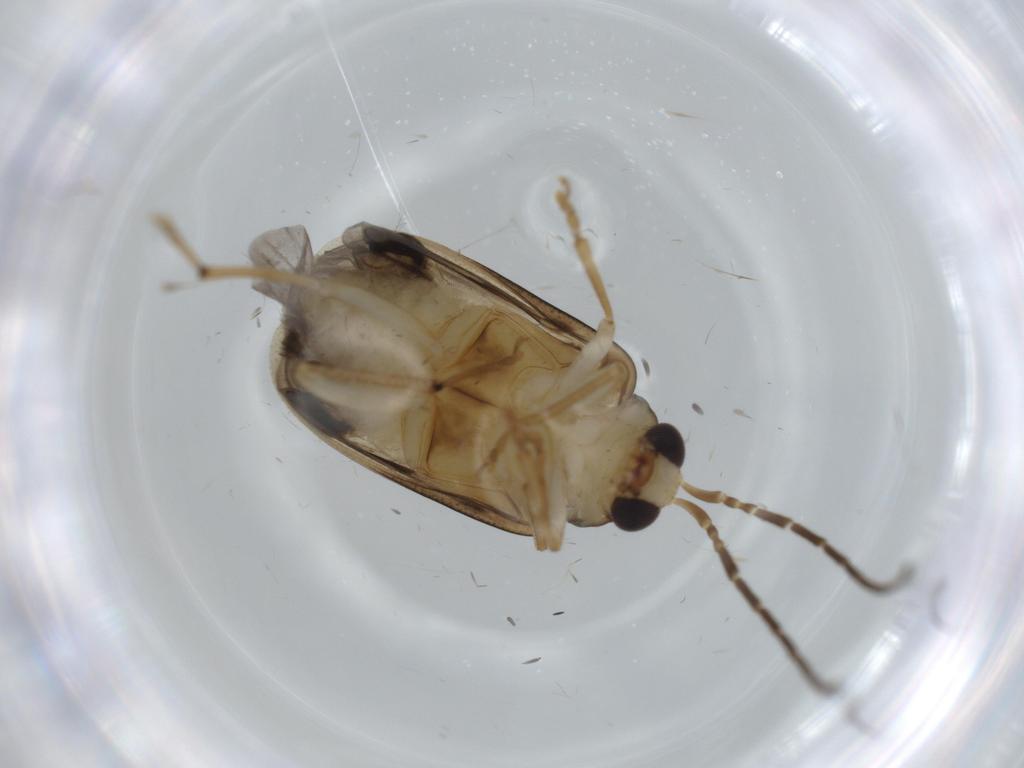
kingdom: Animalia
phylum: Arthropoda
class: Insecta
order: Coleoptera
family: Chrysomelidae
